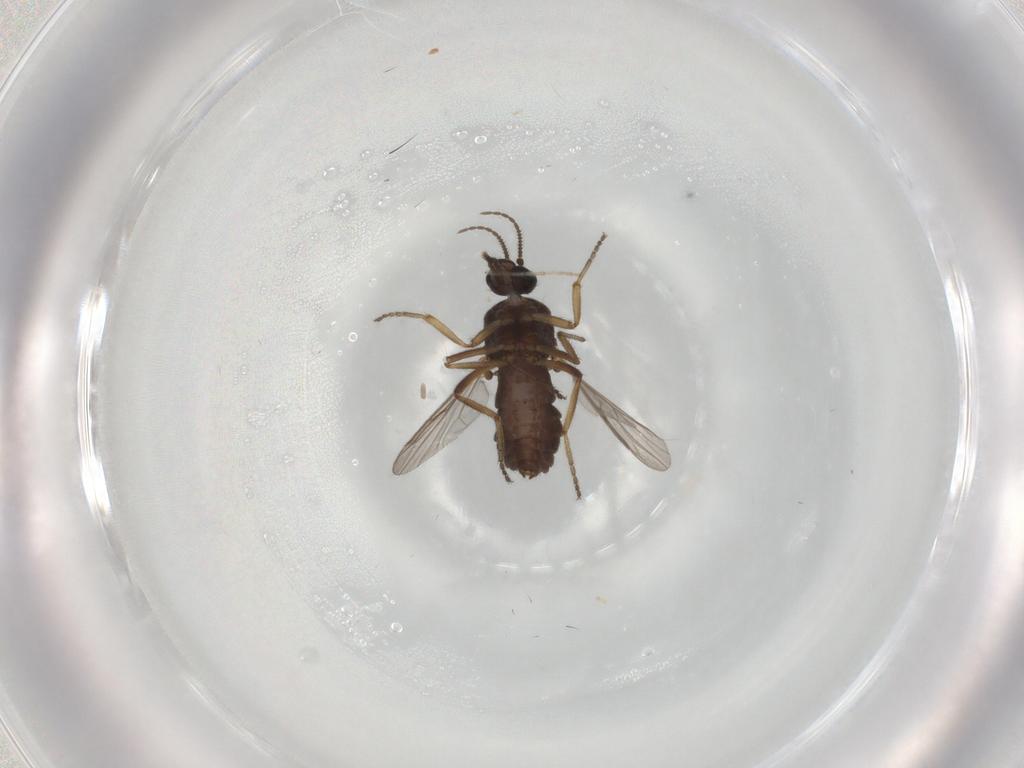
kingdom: Animalia
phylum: Arthropoda
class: Insecta
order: Diptera
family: Ceratopogonidae
